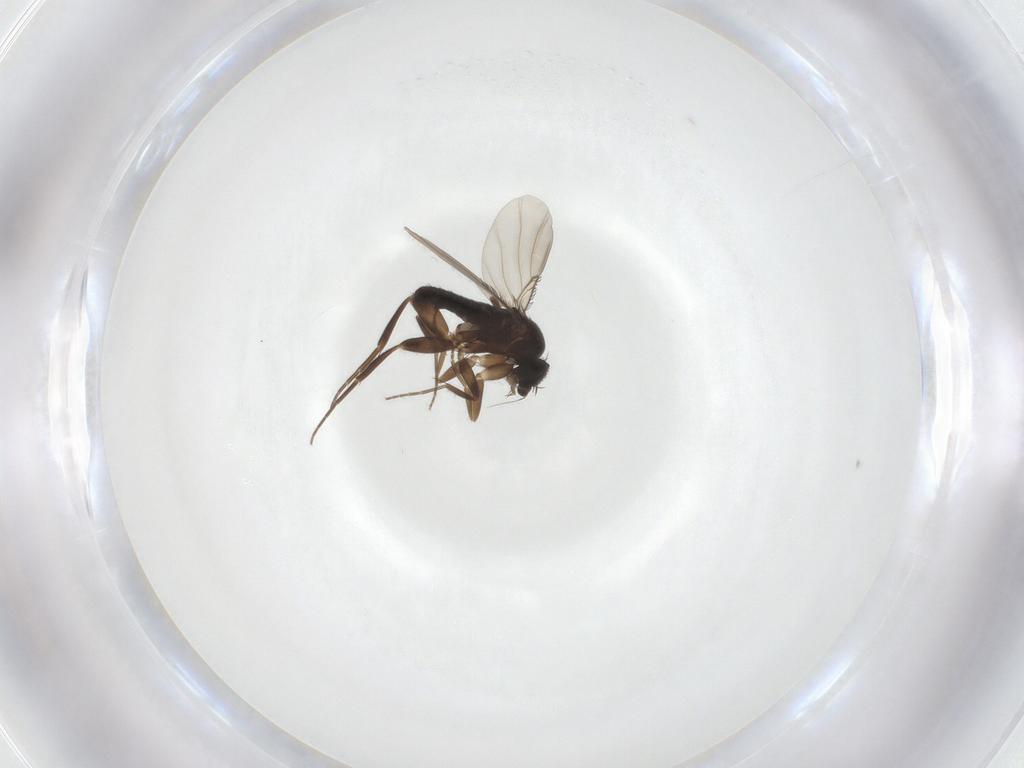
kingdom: Animalia
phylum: Arthropoda
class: Insecta
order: Diptera
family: Phoridae
